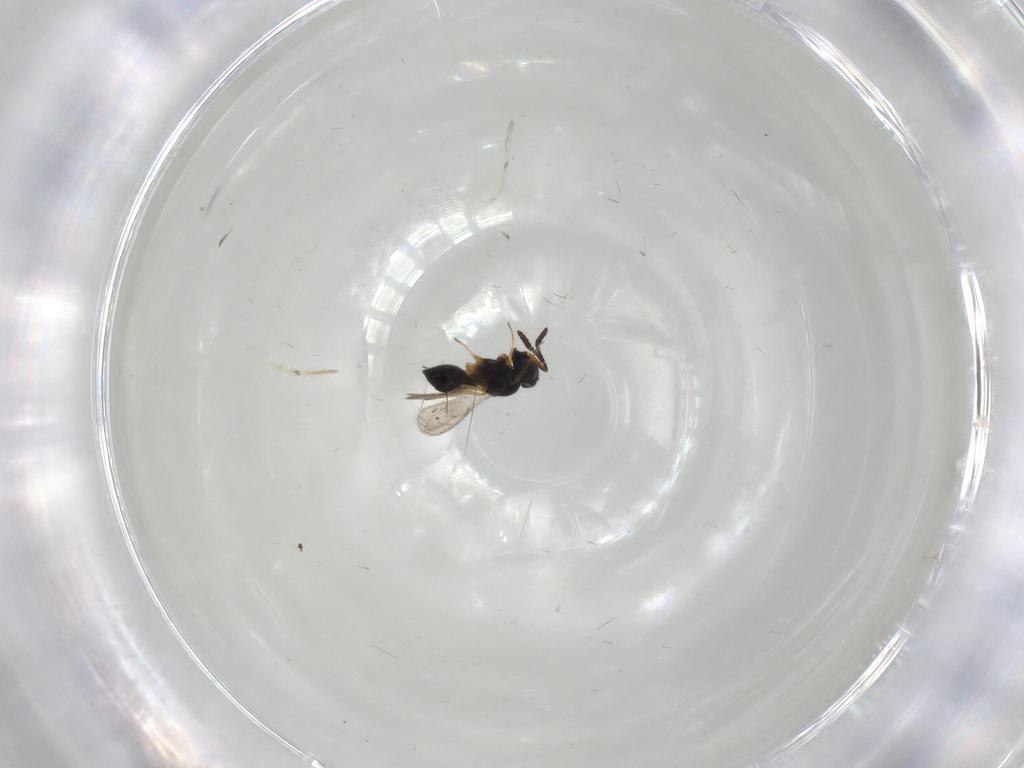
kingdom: Animalia
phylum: Arthropoda
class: Insecta
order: Hymenoptera
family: Scelionidae
